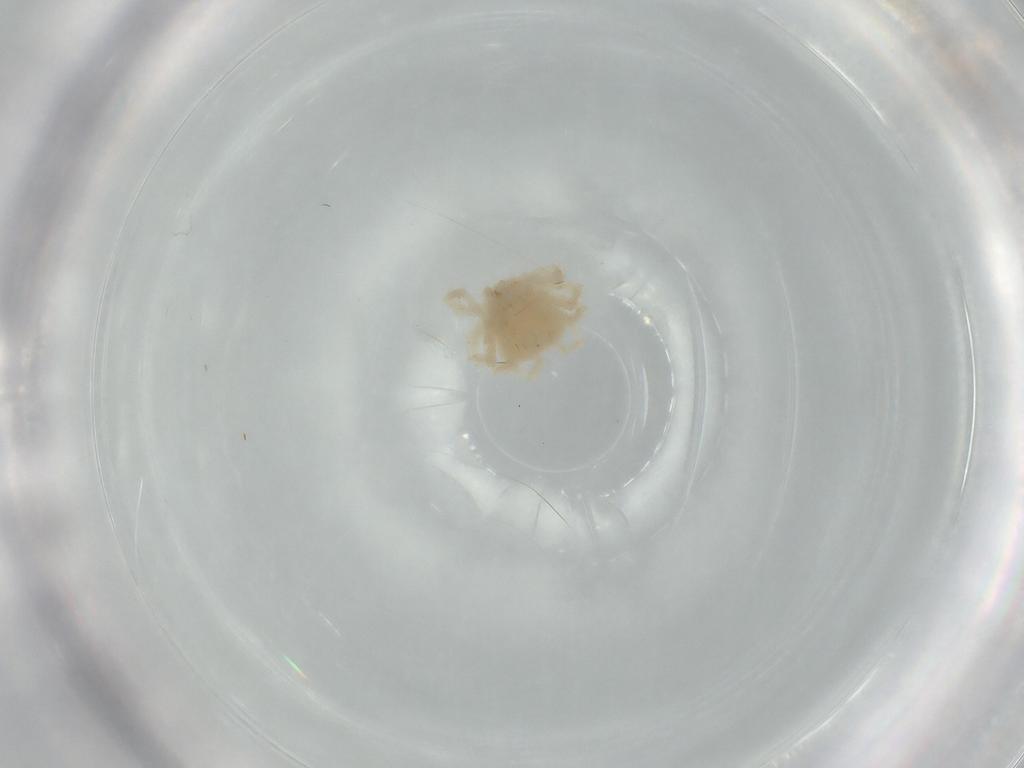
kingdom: Animalia
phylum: Arthropoda
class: Arachnida
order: Trombidiformes
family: Anystidae
